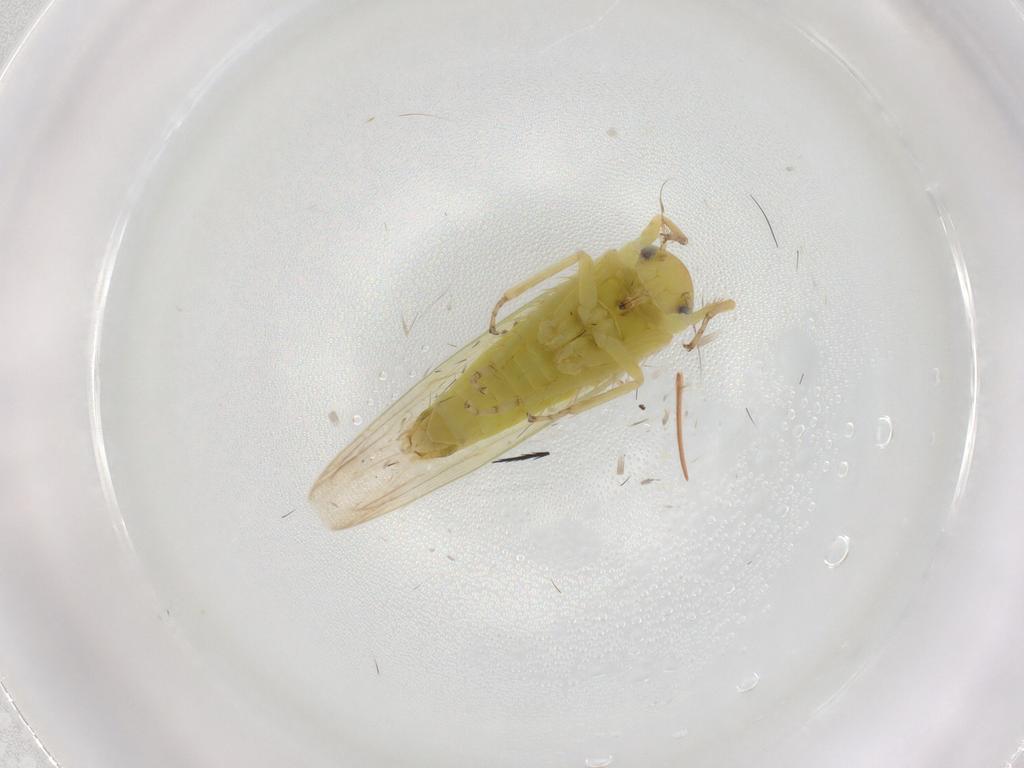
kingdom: Animalia
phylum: Arthropoda
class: Insecta
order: Hemiptera
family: Cicadellidae
